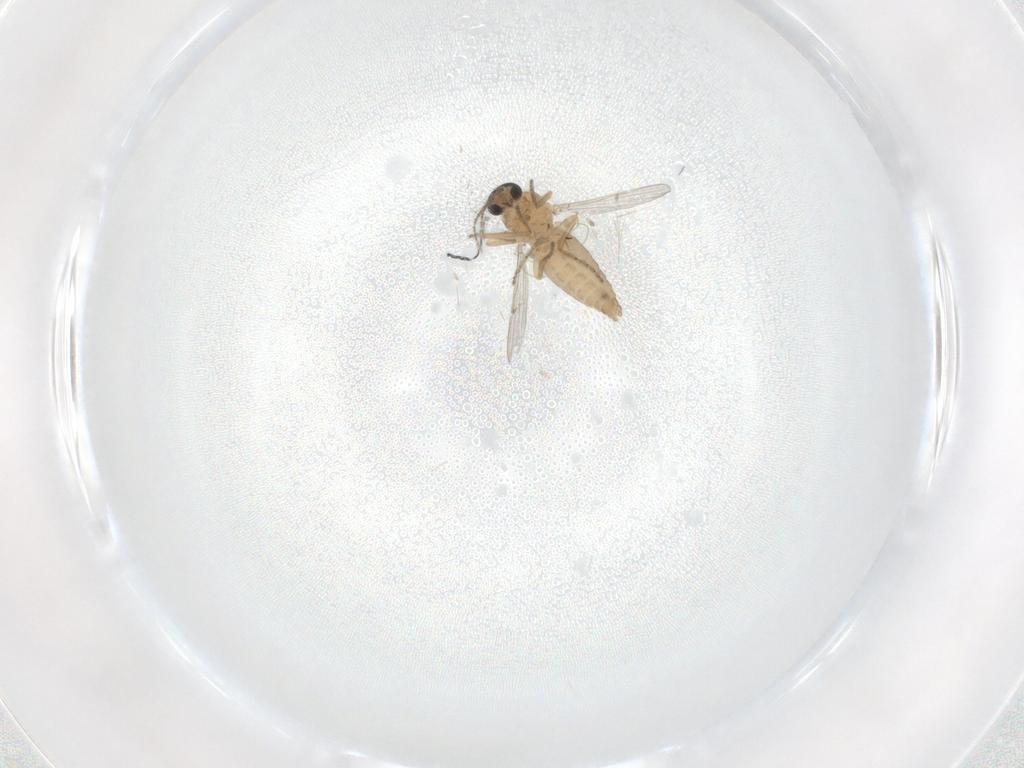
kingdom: Animalia
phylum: Arthropoda
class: Insecta
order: Diptera
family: Ceratopogonidae
